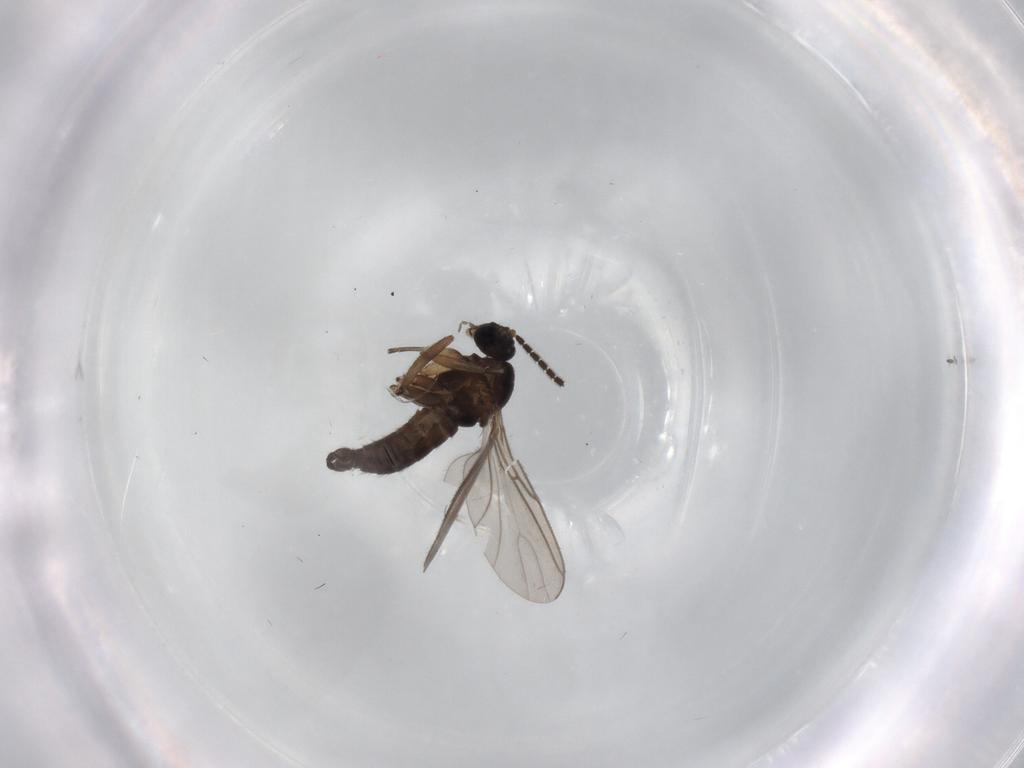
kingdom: Animalia
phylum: Arthropoda
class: Insecta
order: Diptera
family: Sciaridae
